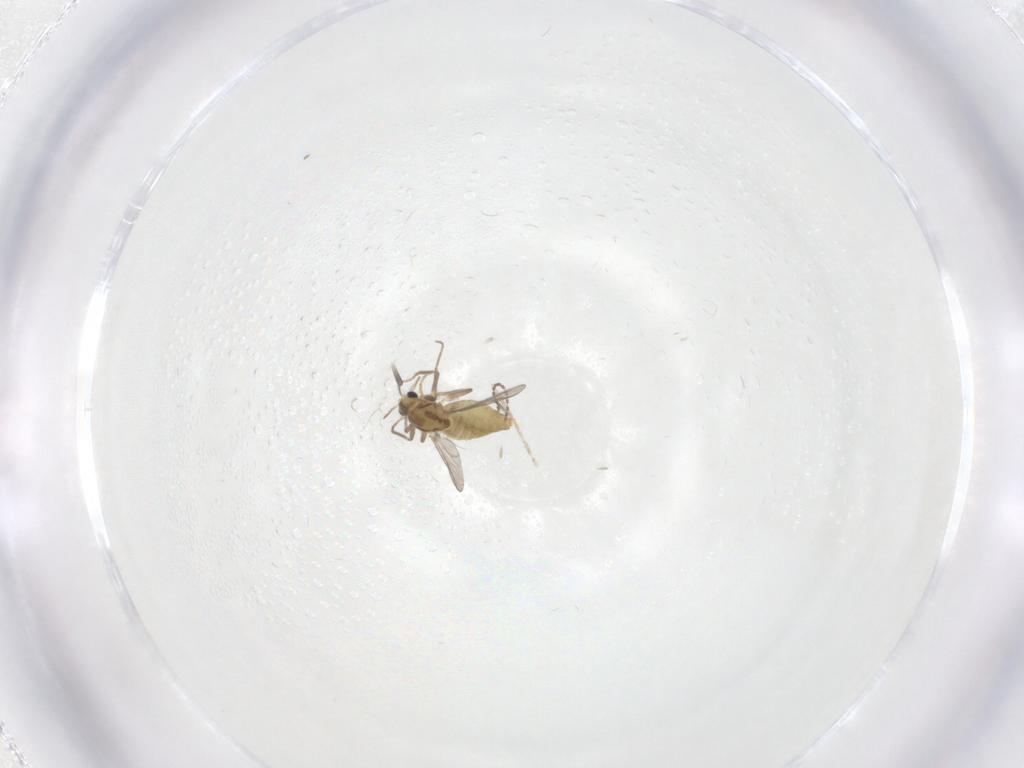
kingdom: Animalia
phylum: Arthropoda
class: Insecta
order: Diptera
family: Chironomidae
